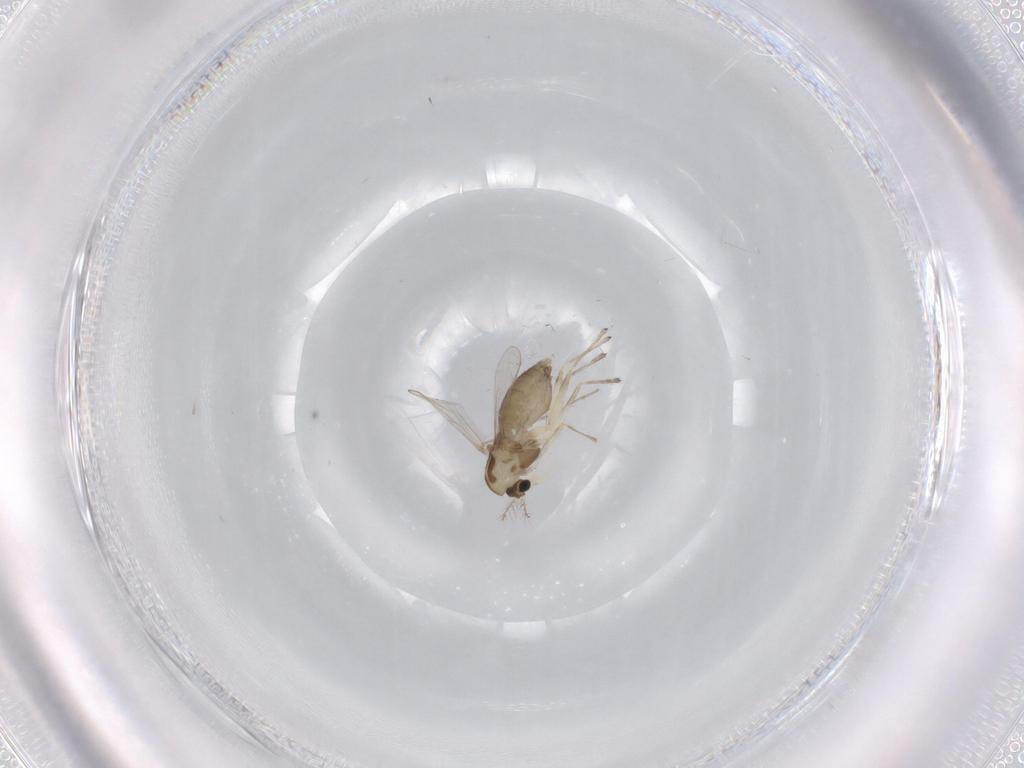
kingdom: Animalia
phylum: Arthropoda
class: Insecta
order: Diptera
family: Chironomidae
